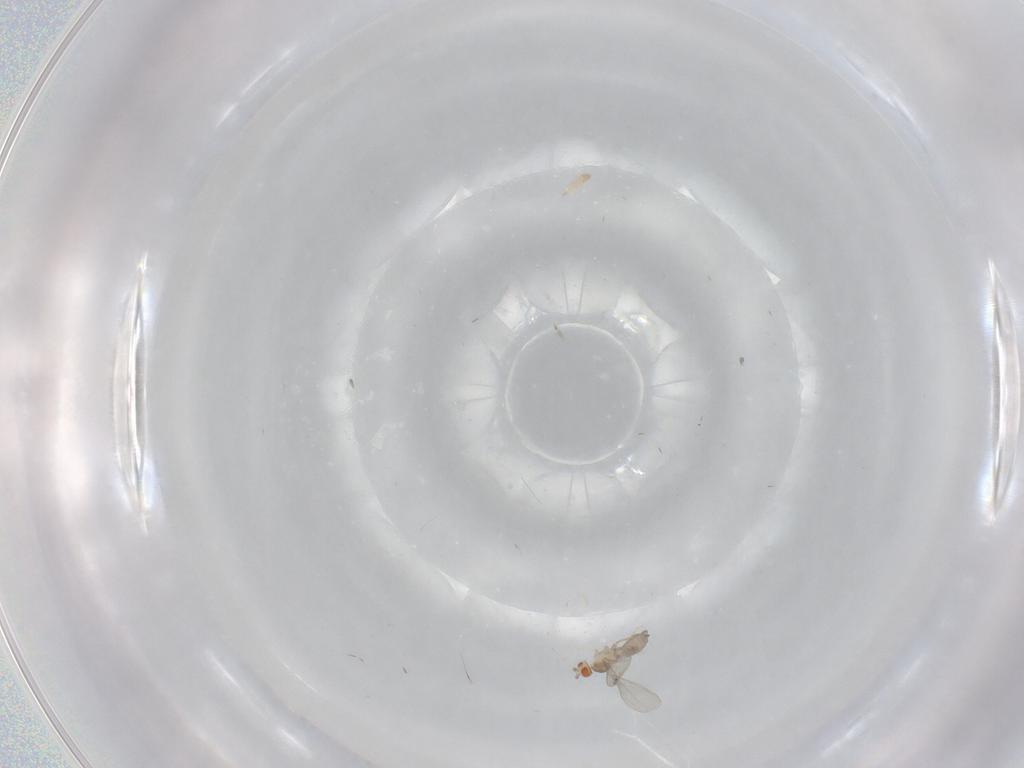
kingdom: Animalia
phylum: Arthropoda
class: Insecta
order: Diptera
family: Cecidomyiidae
